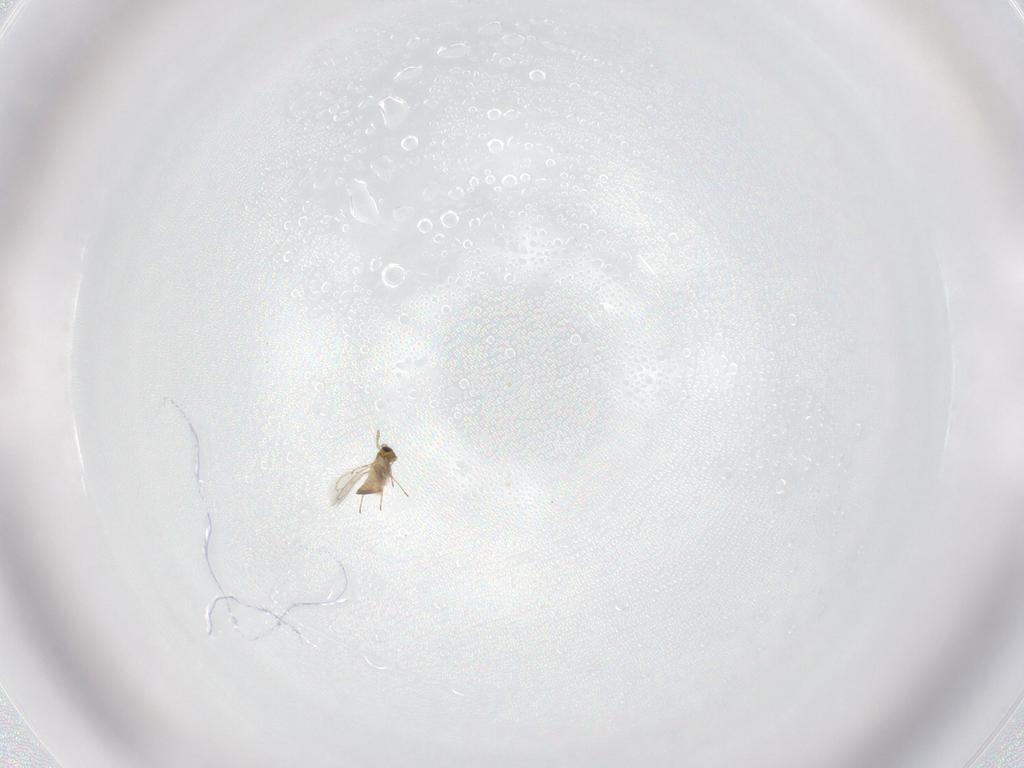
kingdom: Animalia
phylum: Arthropoda
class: Insecta
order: Hymenoptera
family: Trichogrammatidae
